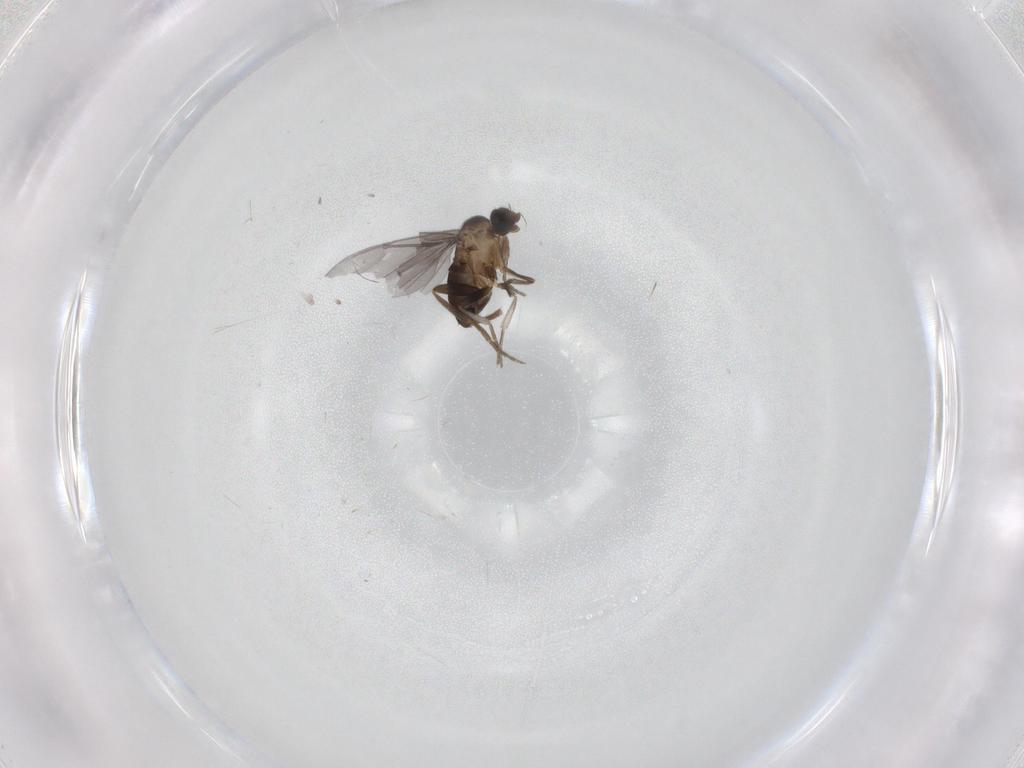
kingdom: Animalia
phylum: Arthropoda
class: Insecta
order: Diptera
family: Phoridae
